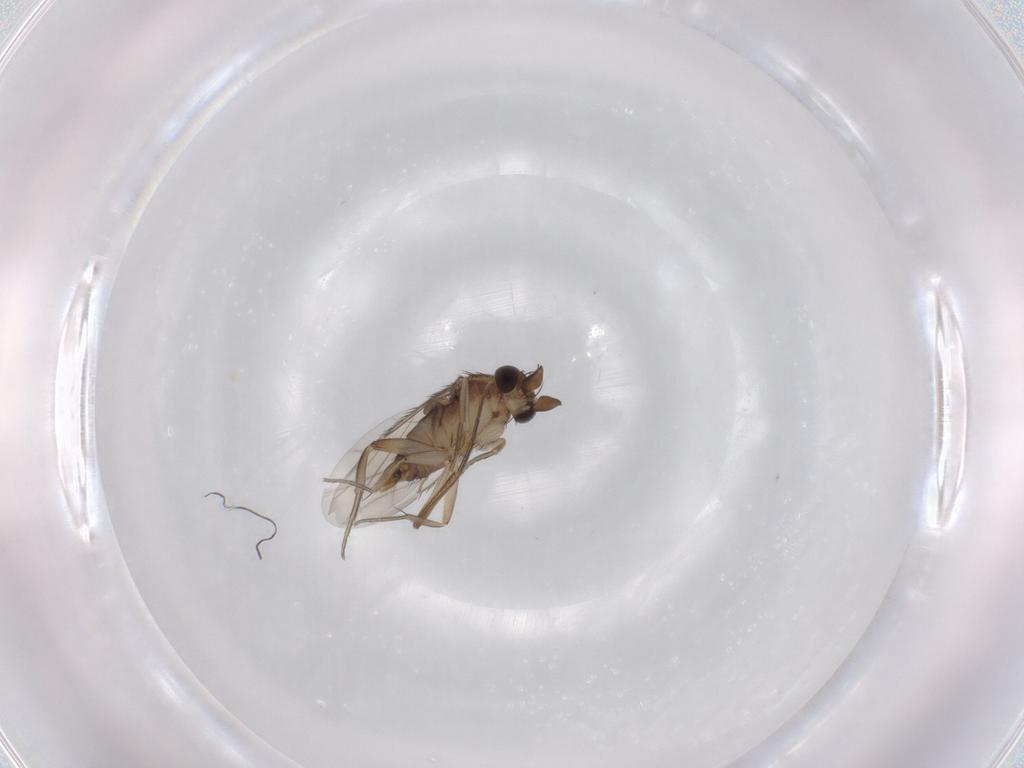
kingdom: Animalia
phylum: Arthropoda
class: Insecta
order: Diptera
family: Phoridae
